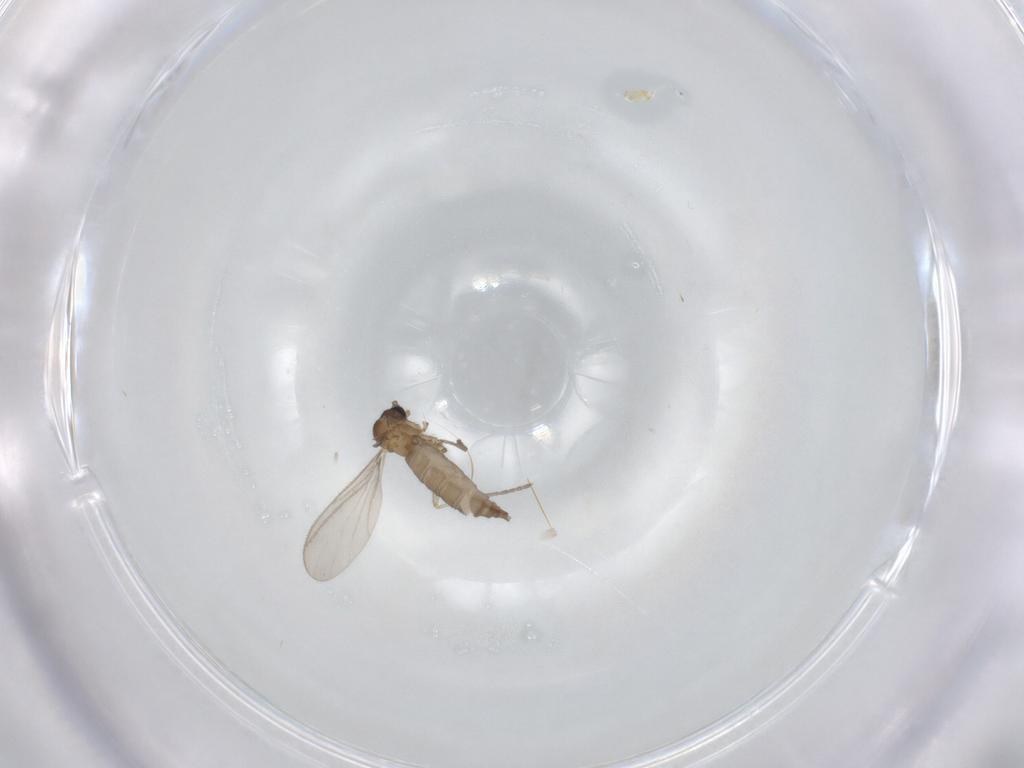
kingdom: Animalia
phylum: Arthropoda
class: Insecta
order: Diptera
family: Sciaridae
